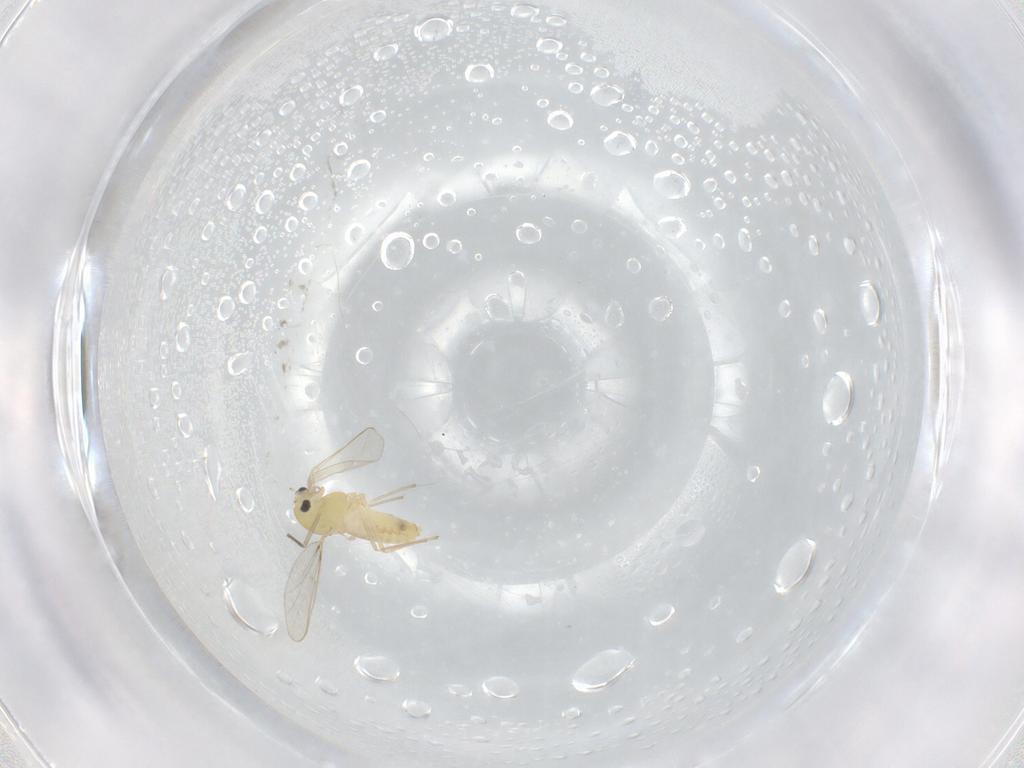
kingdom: Animalia
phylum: Arthropoda
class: Insecta
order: Diptera
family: Chironomidae
